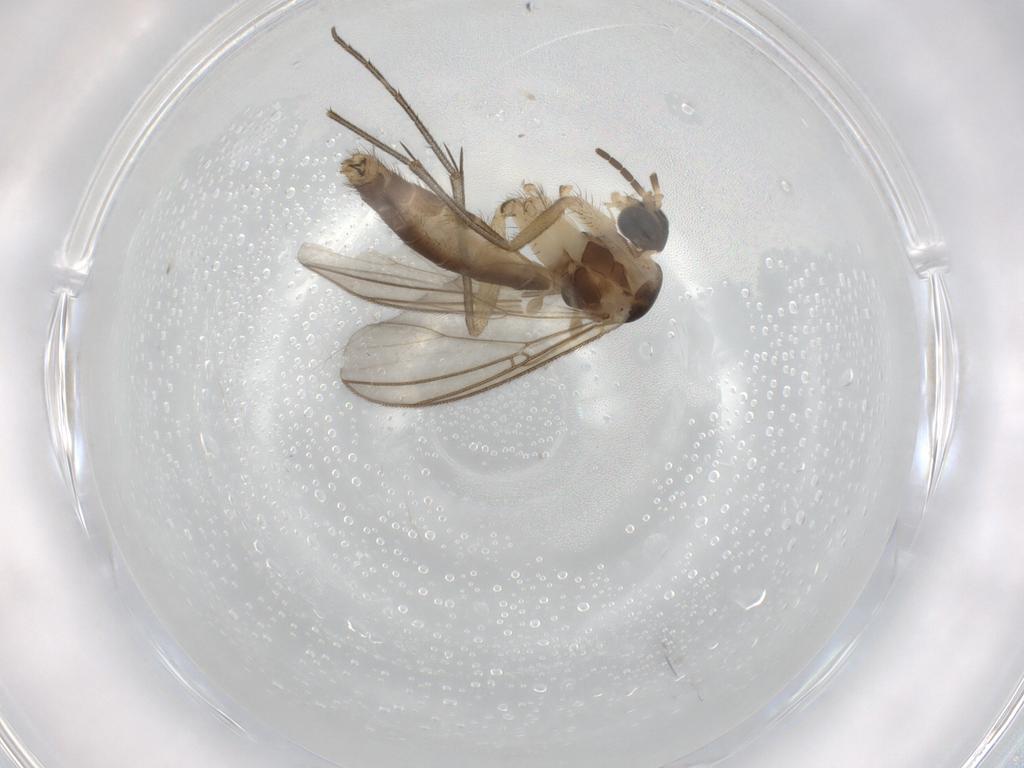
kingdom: Animalia
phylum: Arthropoda
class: Insecta
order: Diptera
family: Mycetophilidae
